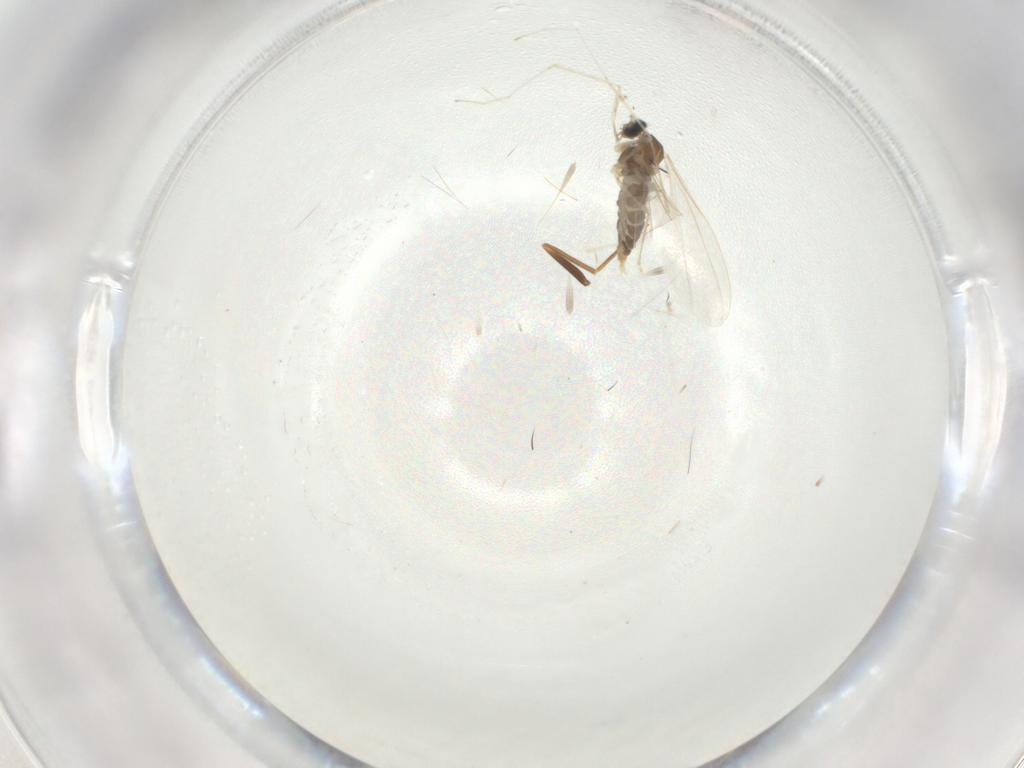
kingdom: Animalia
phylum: Arthropoda
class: Insecta
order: Diptera
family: Cecidomyiidae
